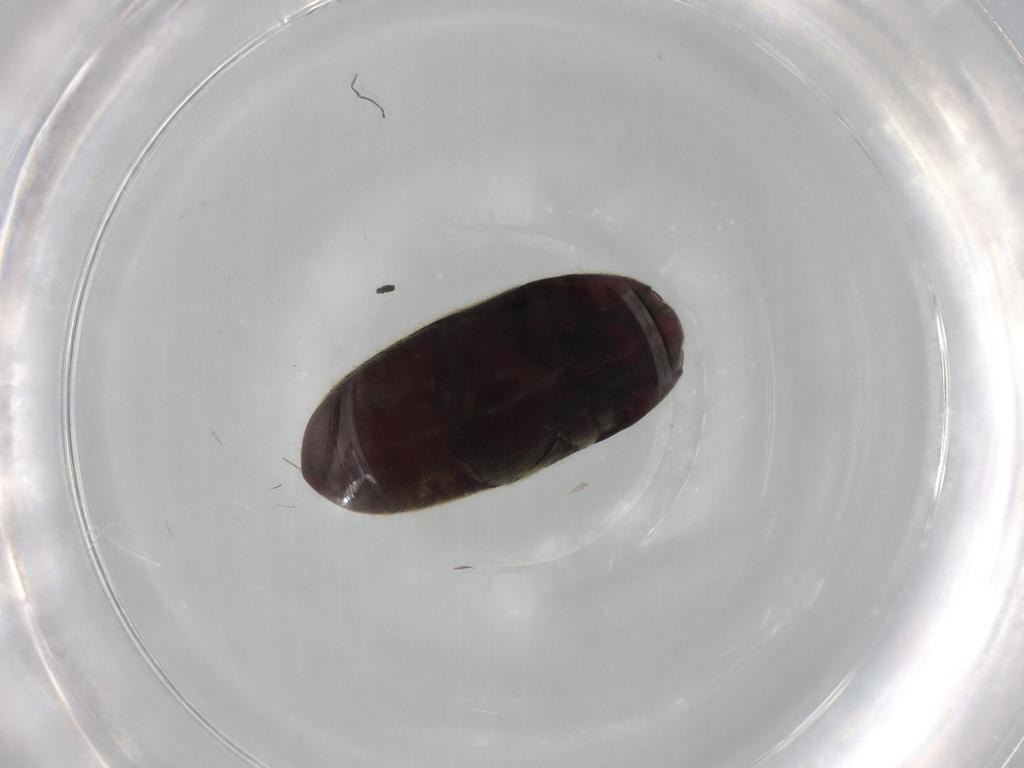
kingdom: Animalia
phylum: Arthropoda
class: Insecta
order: Coleoptera
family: Throscidae
